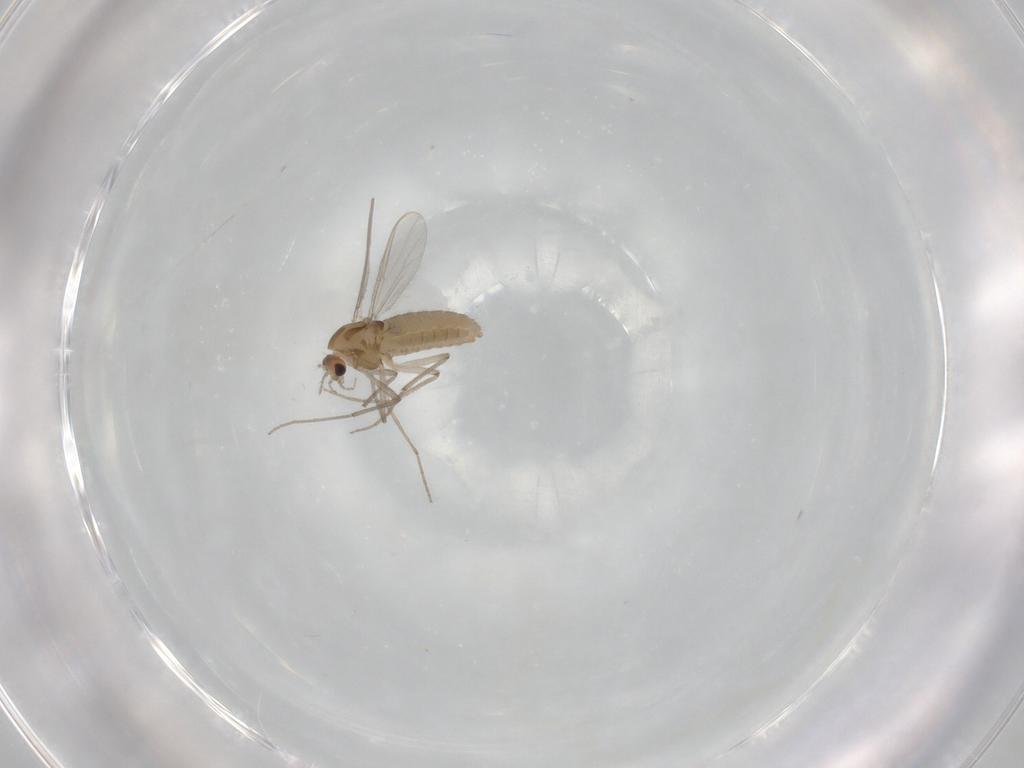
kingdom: Animalia
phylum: Arthropoda
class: Insecta
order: Diptera
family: Chironomidae
